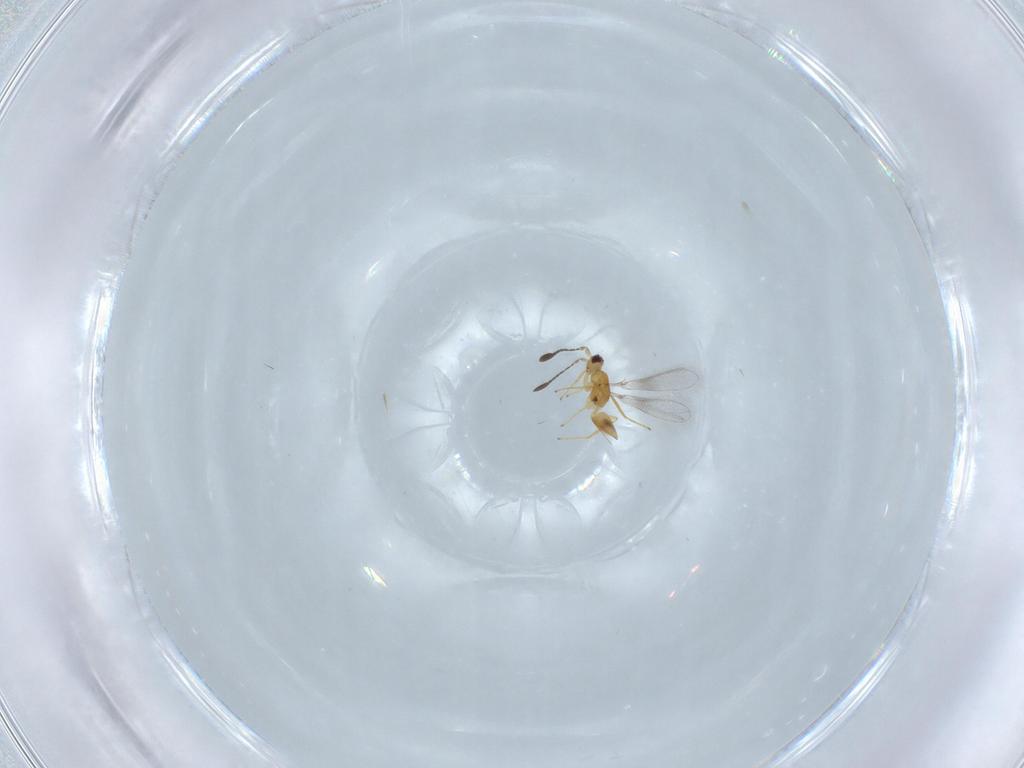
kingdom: Animalia
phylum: Arthropoda
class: Insecta
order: Hymenoptera
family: Mymaridae
